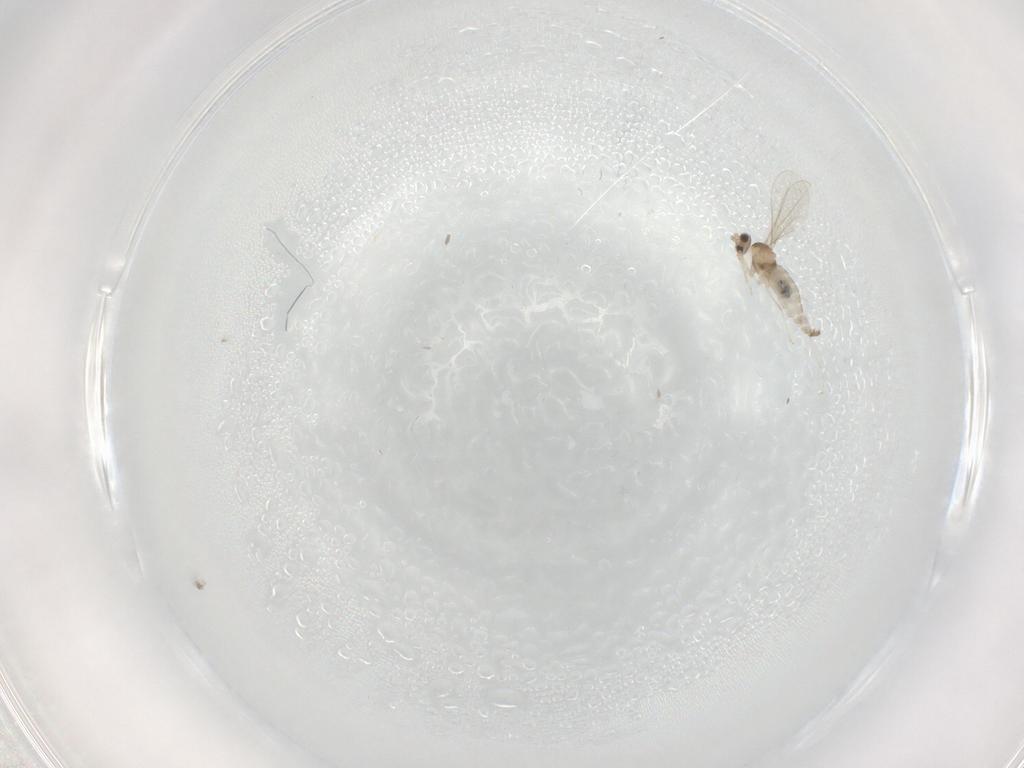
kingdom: Animalia
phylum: Arthropoda
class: Insecta
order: Diptera
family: Cecidomyiidae
